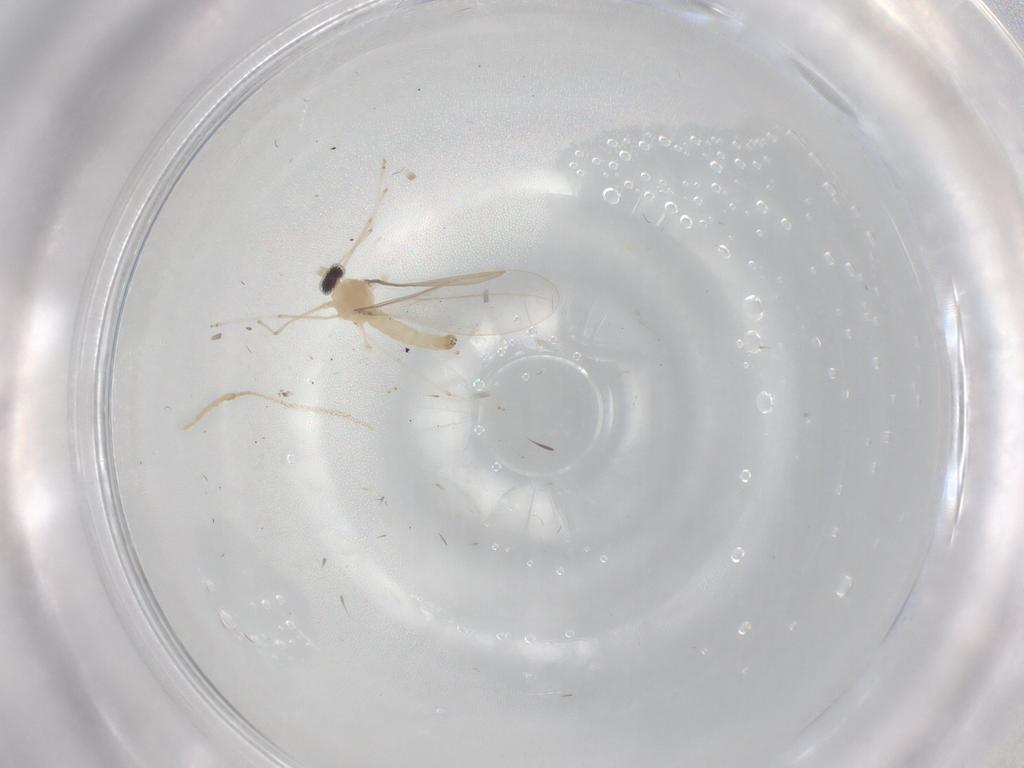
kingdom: Animalia
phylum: Arthropoda
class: Insecta
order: Diptera
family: Cecidomyiidae
